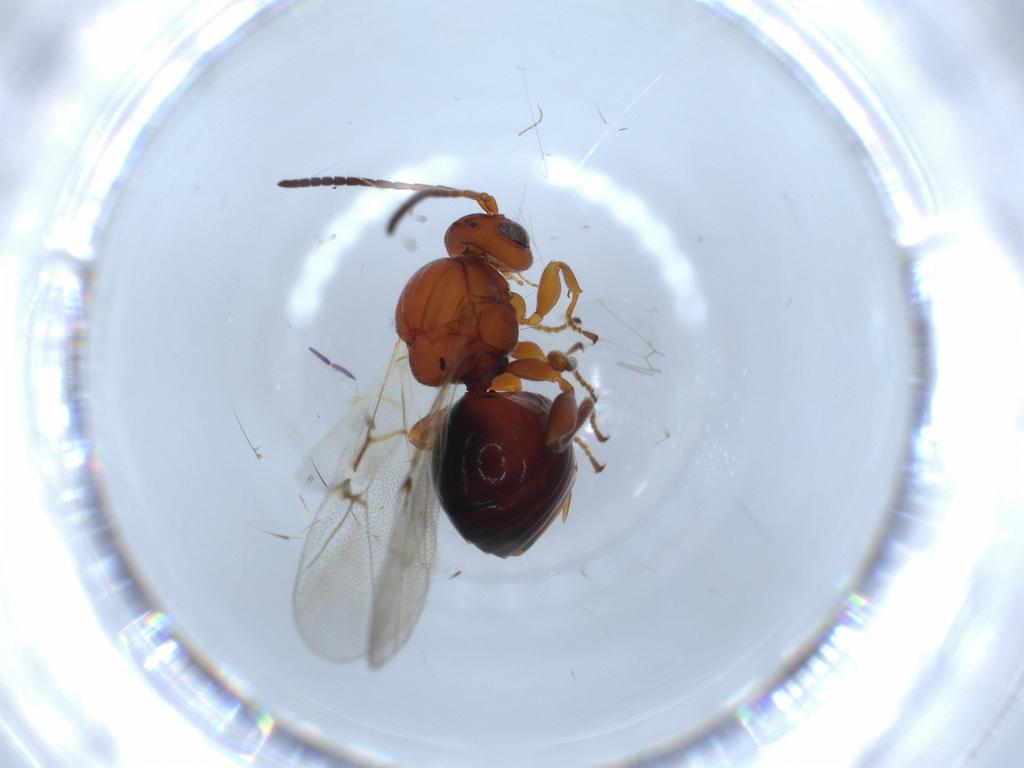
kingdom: Animalia
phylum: Arthropoda
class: Insecta
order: Hymenoptera
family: Cynipidae
